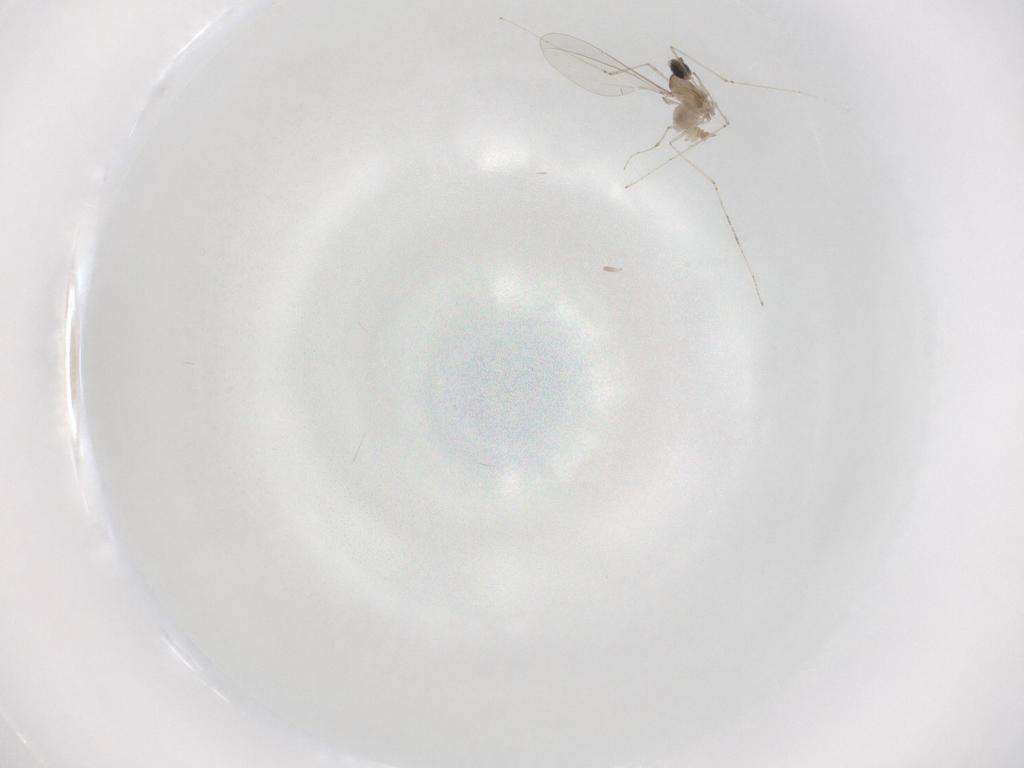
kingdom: Animalia
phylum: Arthropoda
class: Insecta
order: Diptera
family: Cecidomyiidae
